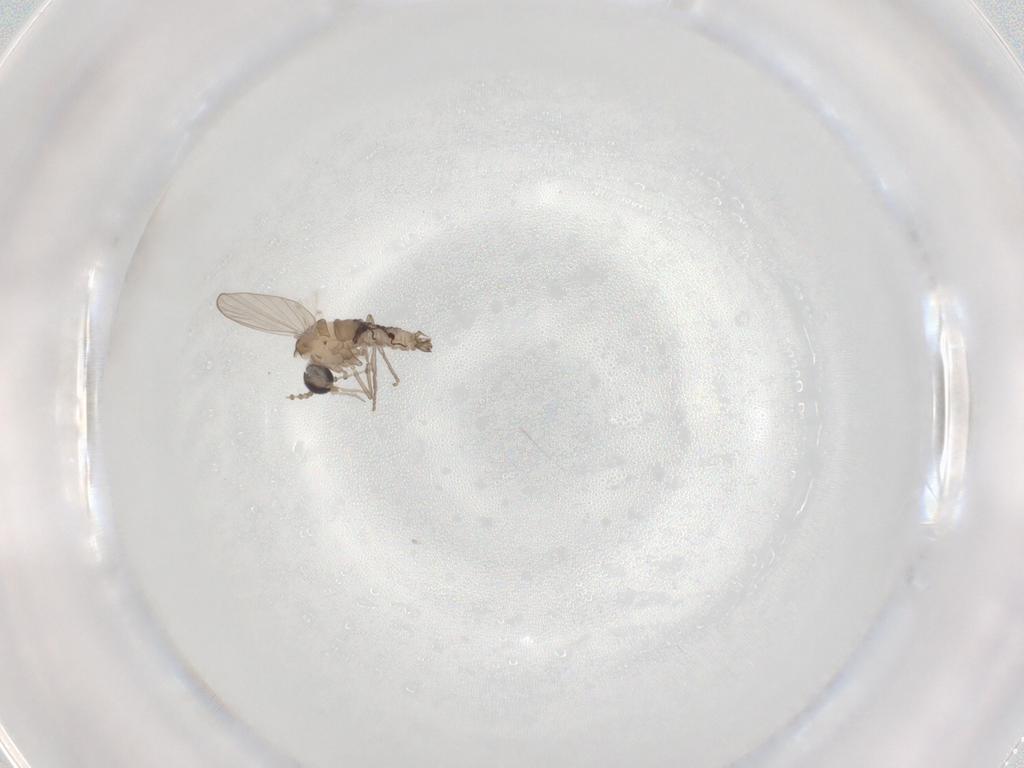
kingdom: Animalia
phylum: Arthropoda
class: Insecta
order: Diptera
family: Psychodidae
